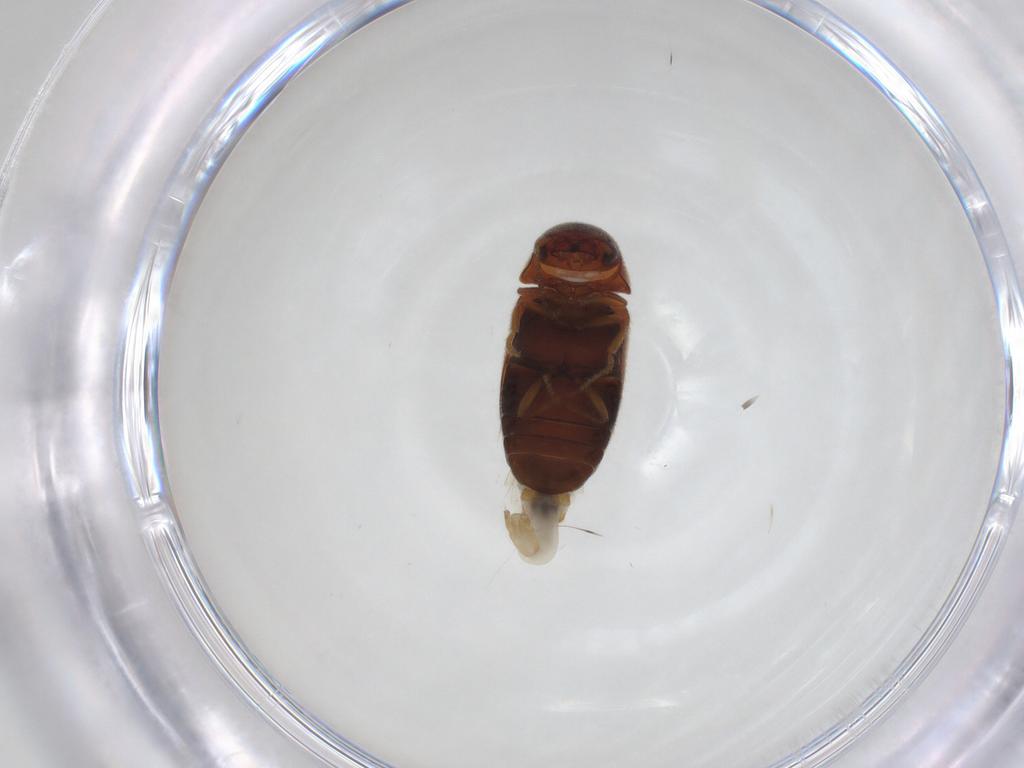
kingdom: Animalia
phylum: Arthropoda
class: Insecta
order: Coleoptera
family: Ptinidae
